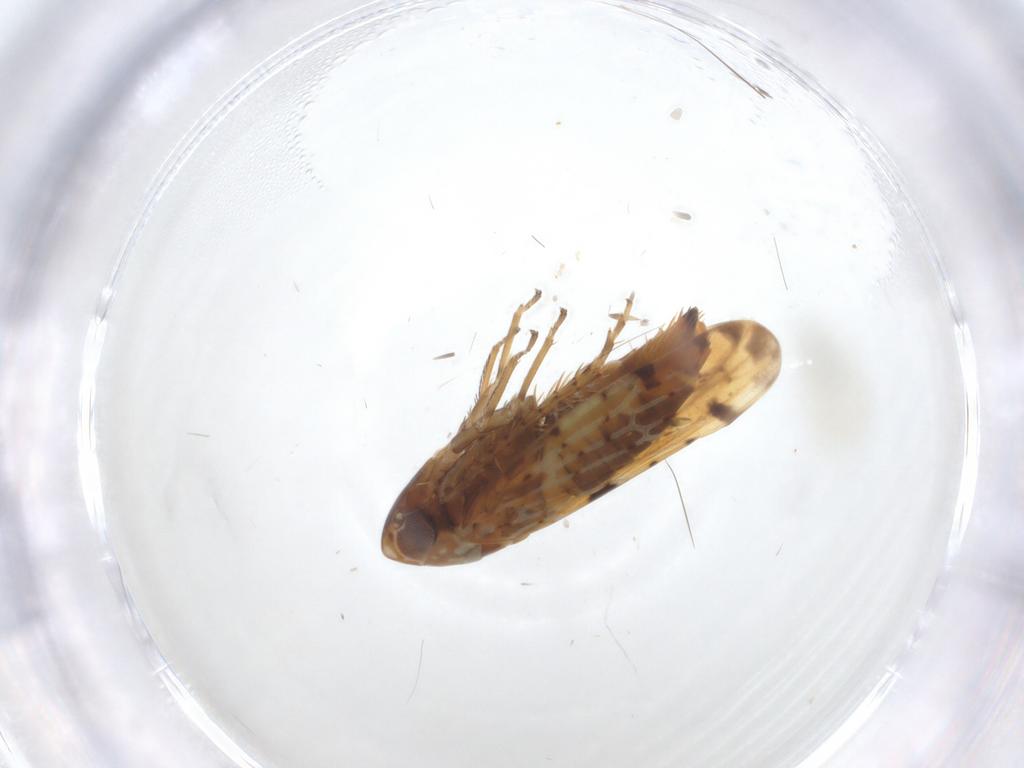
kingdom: Animalia
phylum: Arthropoda
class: Insecta
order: Hemiptera
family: Cicadellidae
